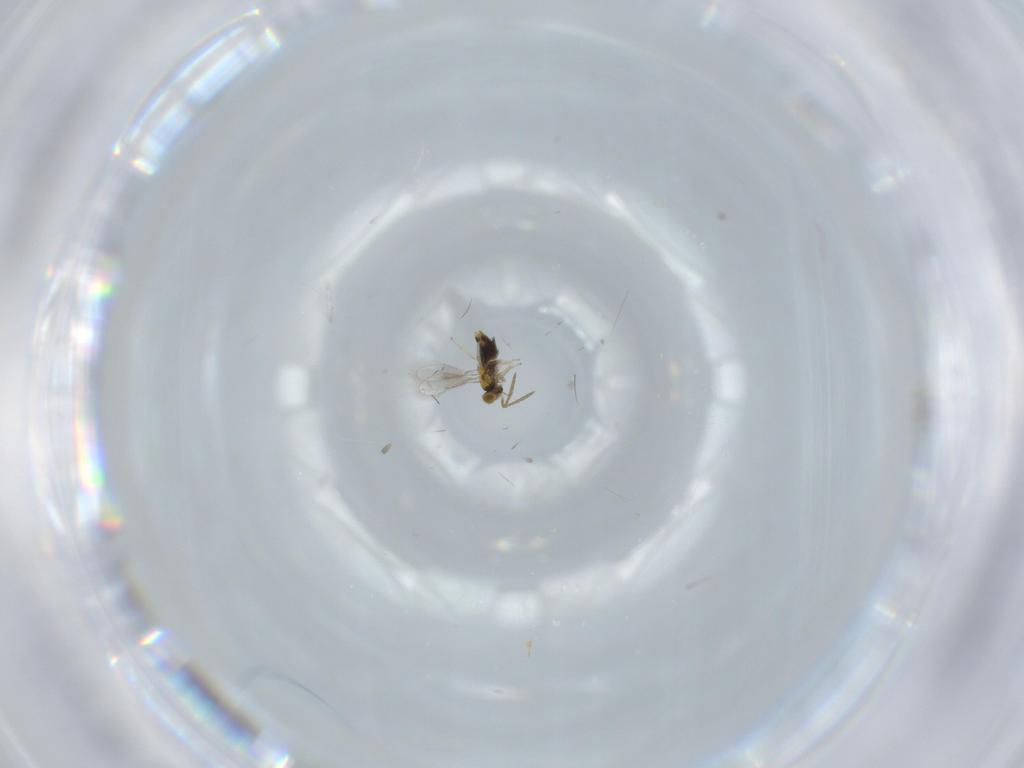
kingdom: Animalia
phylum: Arthropoda
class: Insecta
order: Hymenoptera
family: Aphelinidae
